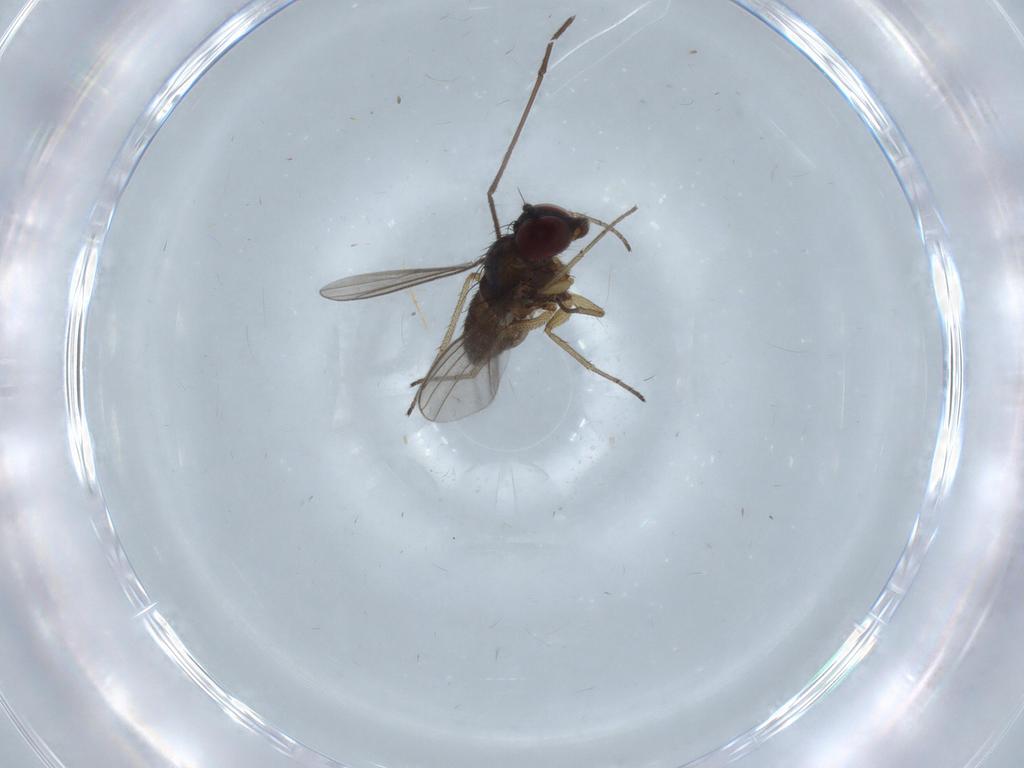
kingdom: Animalia
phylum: Arthropoda
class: Insecta
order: Diptera
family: Dolichopodidae
